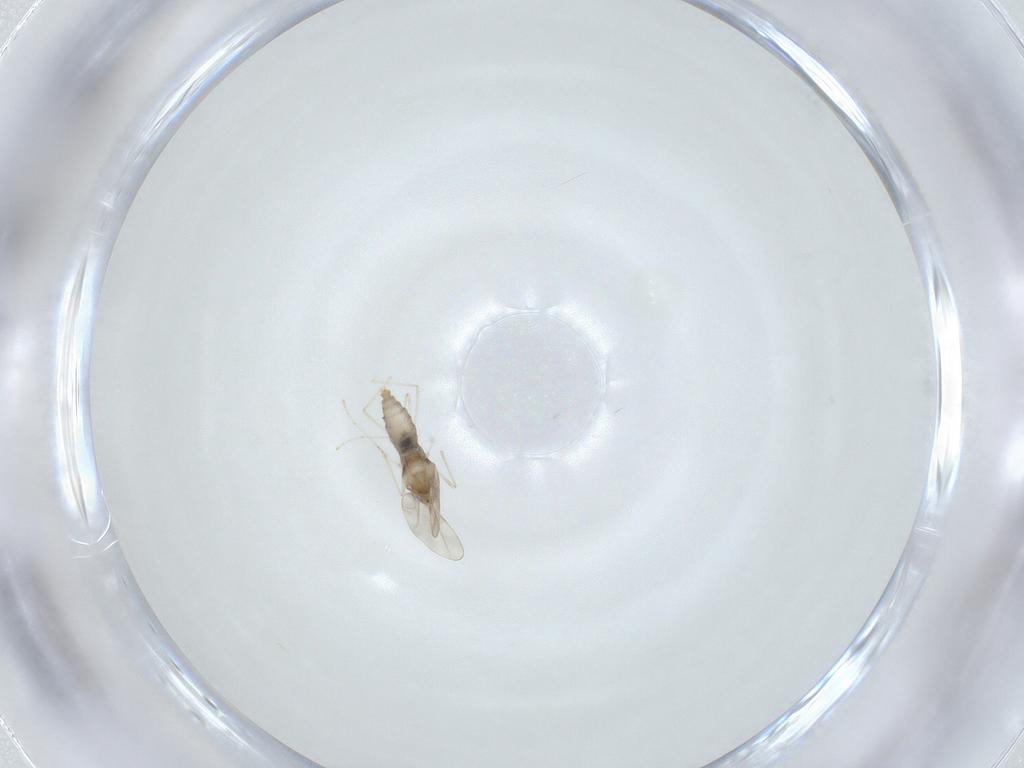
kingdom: Animalia
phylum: Arthropoda
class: Insecta
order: Diptera
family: Cecidomyiidae
